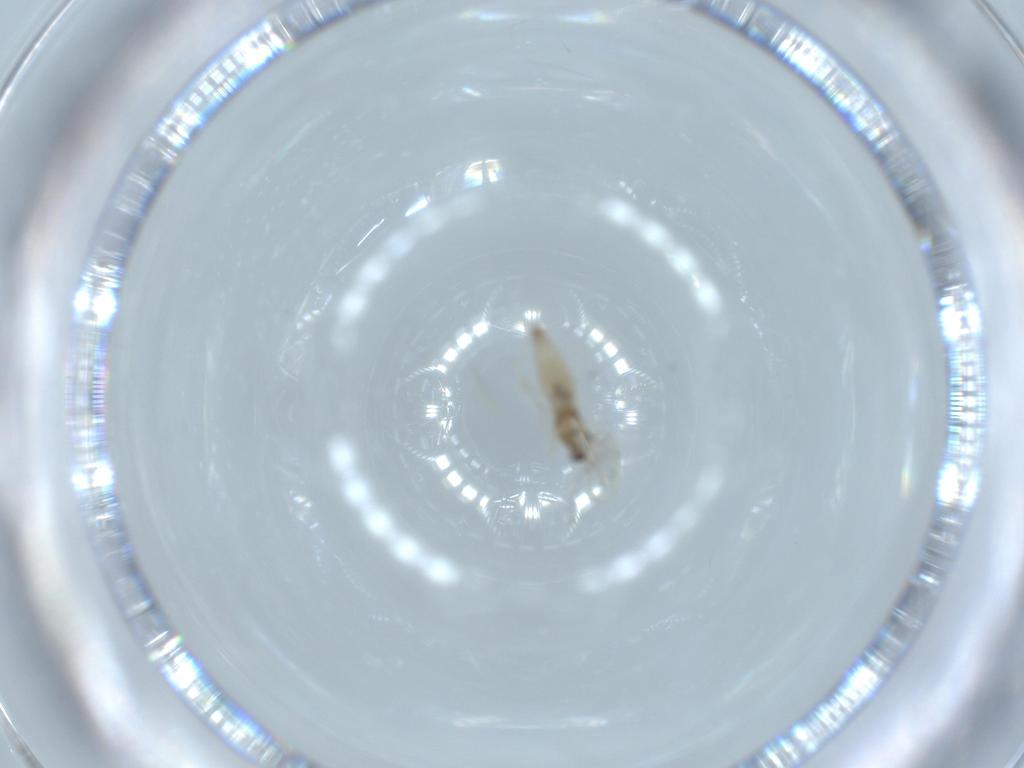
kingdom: Animalia
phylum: Arthropoda
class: Insecta
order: Diptera
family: Cecidomyiidae
